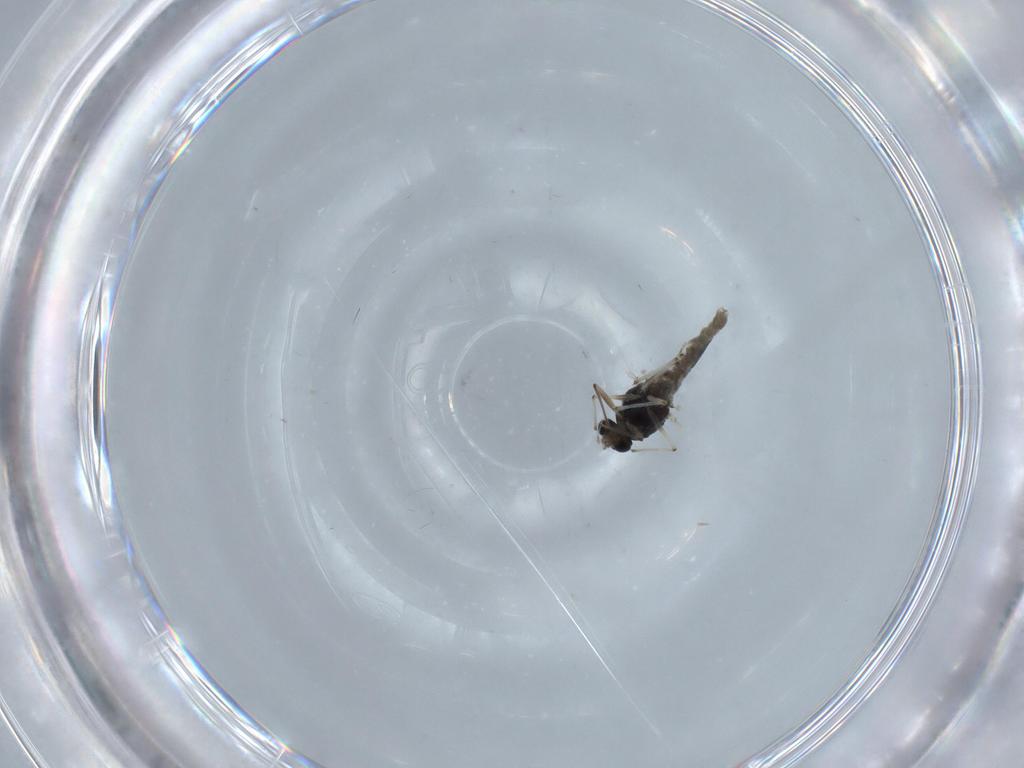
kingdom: Animalia
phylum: Arthropoda
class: Insecta
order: Diptera
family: Chironomidae
